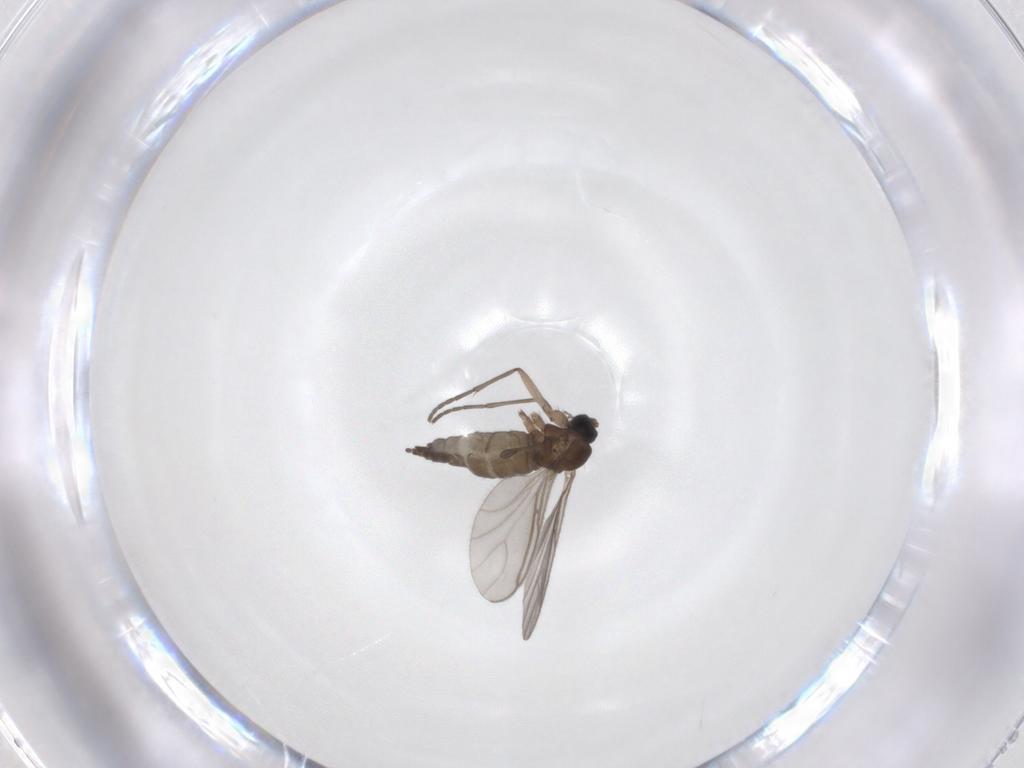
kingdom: Animalia
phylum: Arthropoda
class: Insecta
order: Diptera
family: Sciaridae
